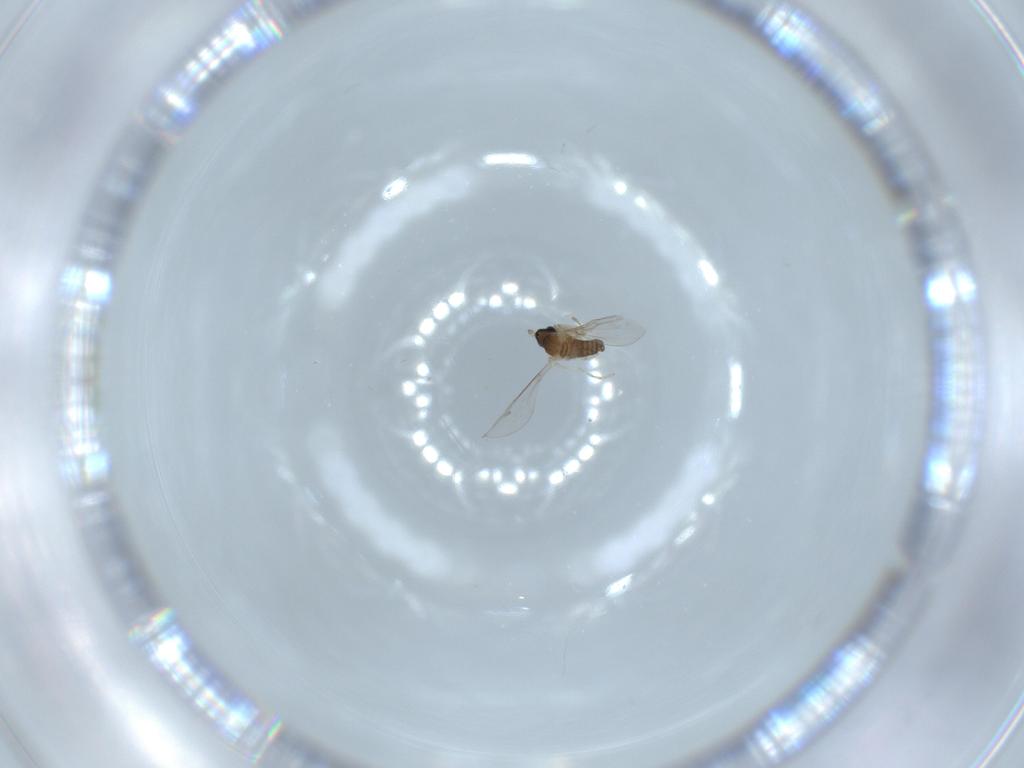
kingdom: Animalia
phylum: Arthropoda
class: Insecta
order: Diptera
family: Cecidomyiidae
